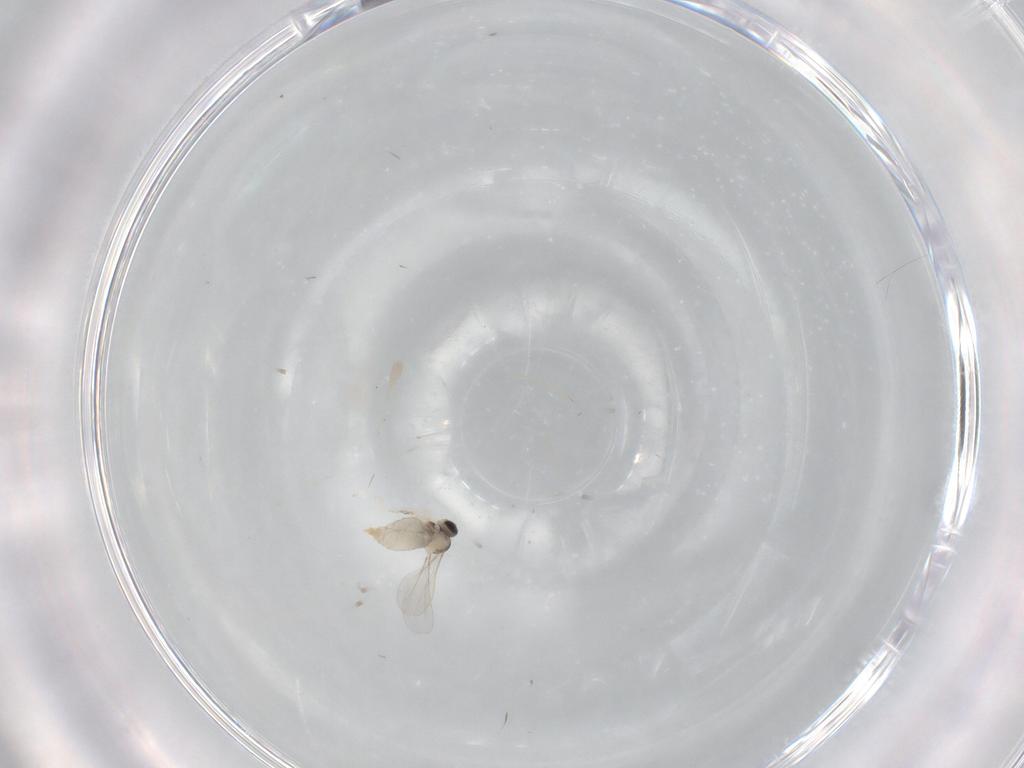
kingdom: Animalia
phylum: Arthropoda
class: Insecta
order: Diptera
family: Cecidomyiidae
